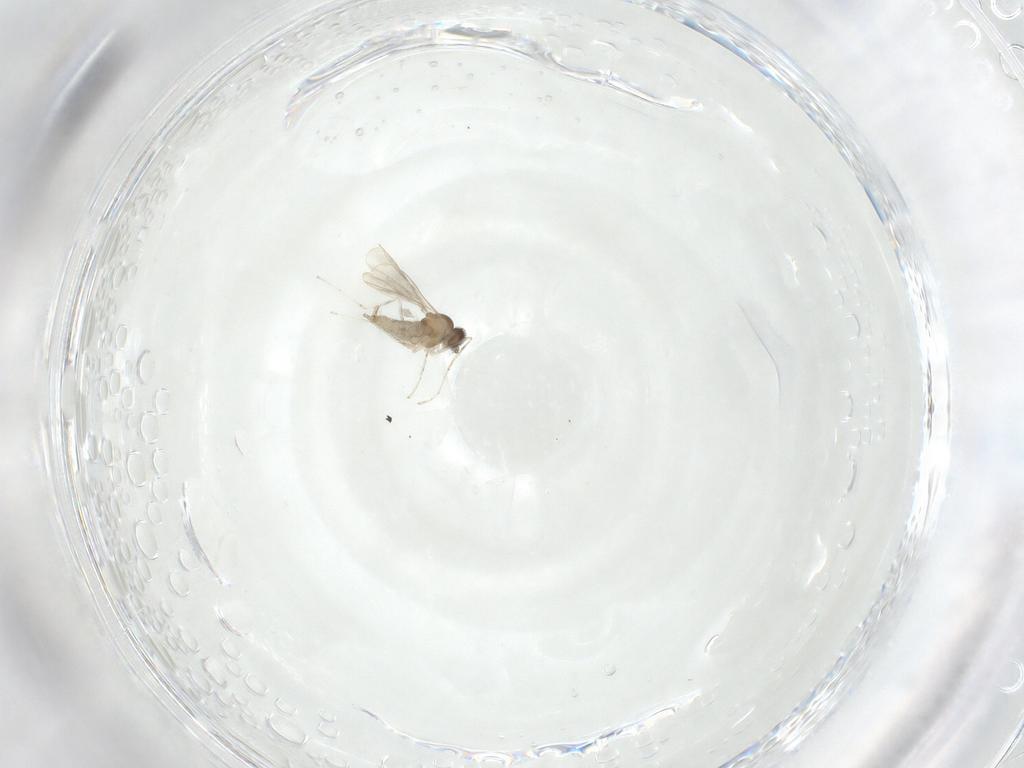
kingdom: Animalia
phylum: Arthropoda
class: Insecta
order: Diptera
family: Cecidomyiidae
